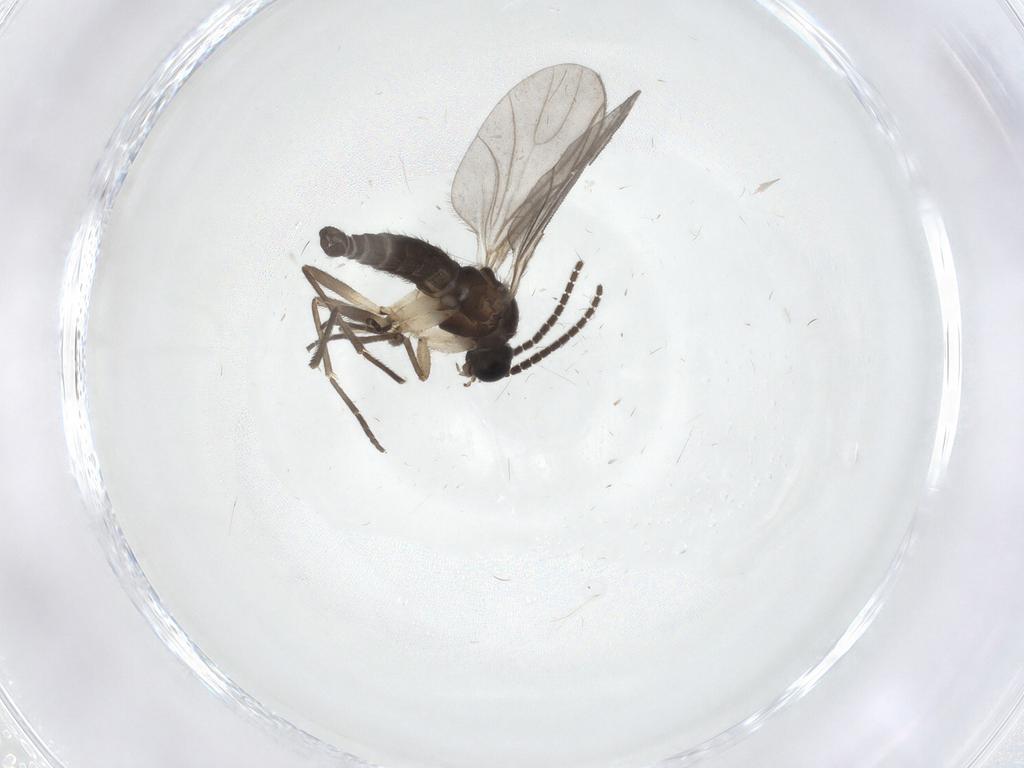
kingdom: Animalia
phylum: Arthropoda
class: Insecta
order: Diptera
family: Sciaridae
